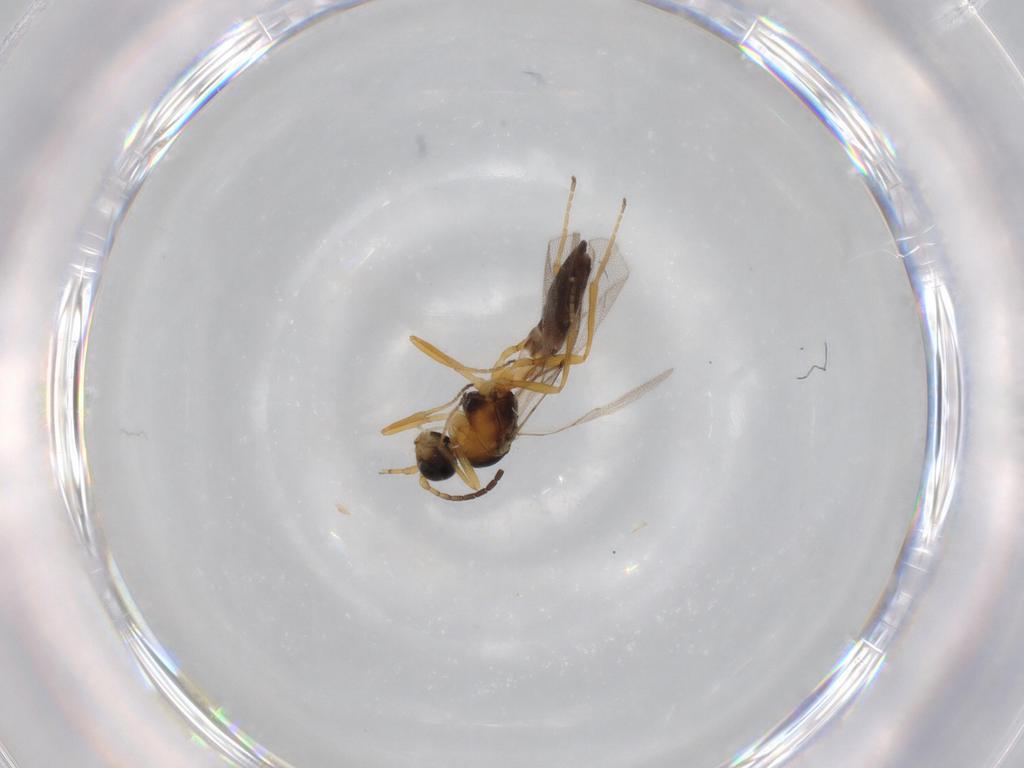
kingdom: Animalia
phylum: Arthropoda
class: Insecta
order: Hymenoptera
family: Braconidae
